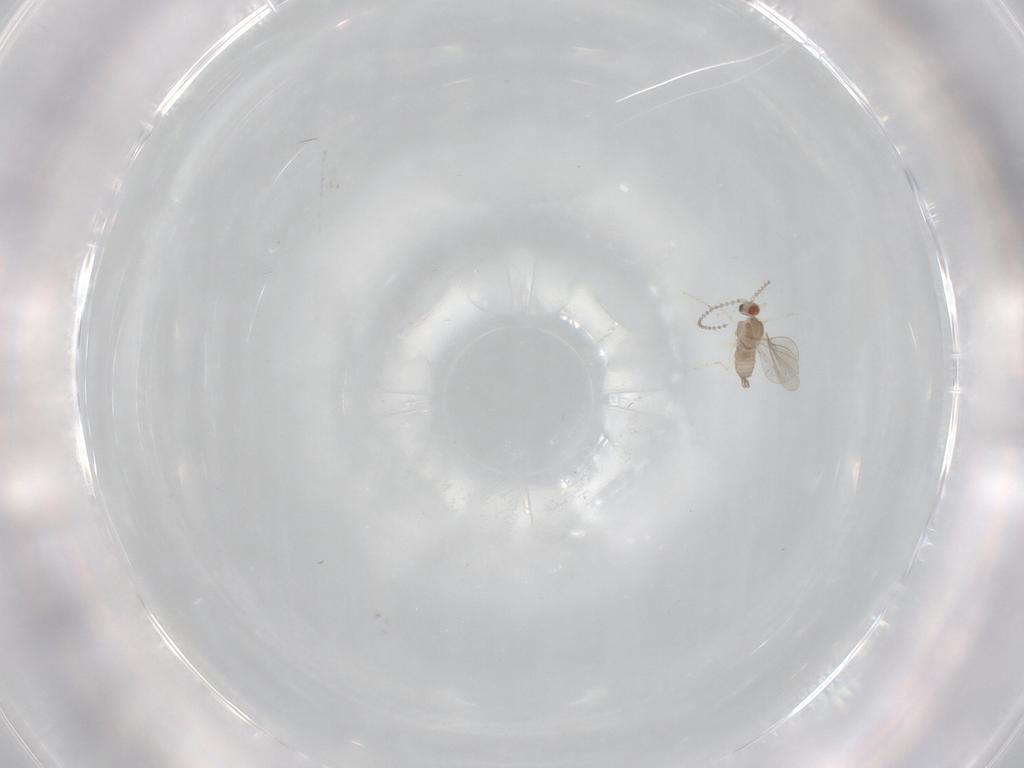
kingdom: Animalia
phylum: Arthropoda
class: Insecta
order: Diptera
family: Cecidomyiidae
